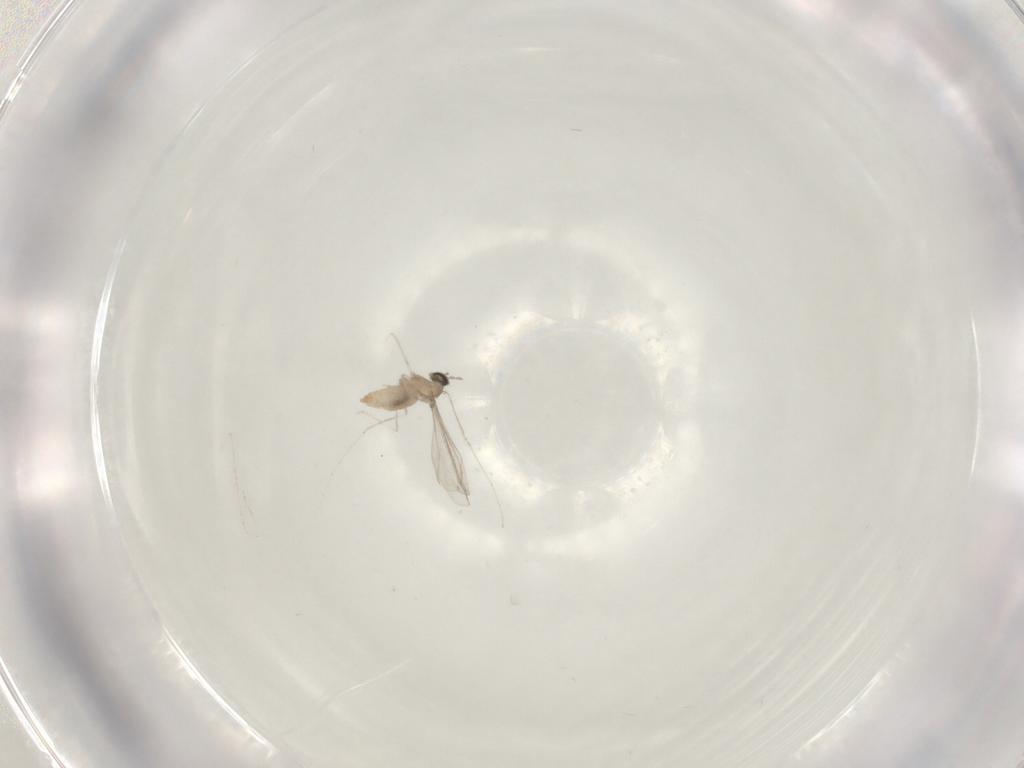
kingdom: Animalia
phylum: Arthropoda
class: Insecta
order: Diptera
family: Cecidomyiidae
